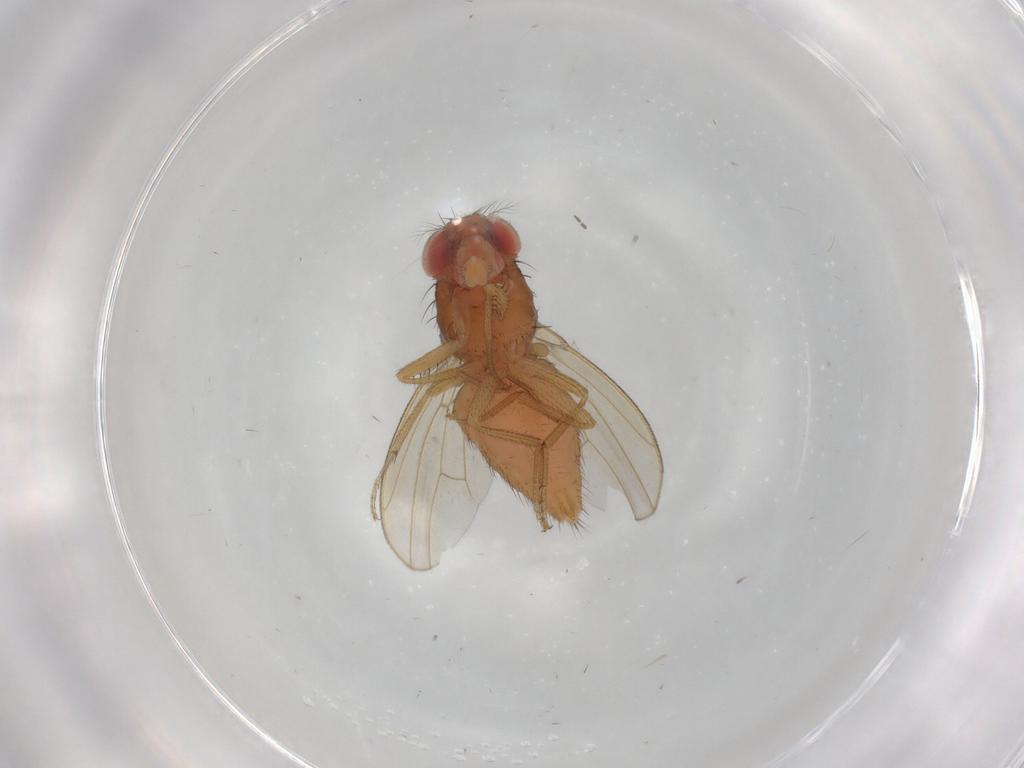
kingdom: Animalia
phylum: Arthropoda
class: Insecta
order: Diptera
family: Drosophilidae
